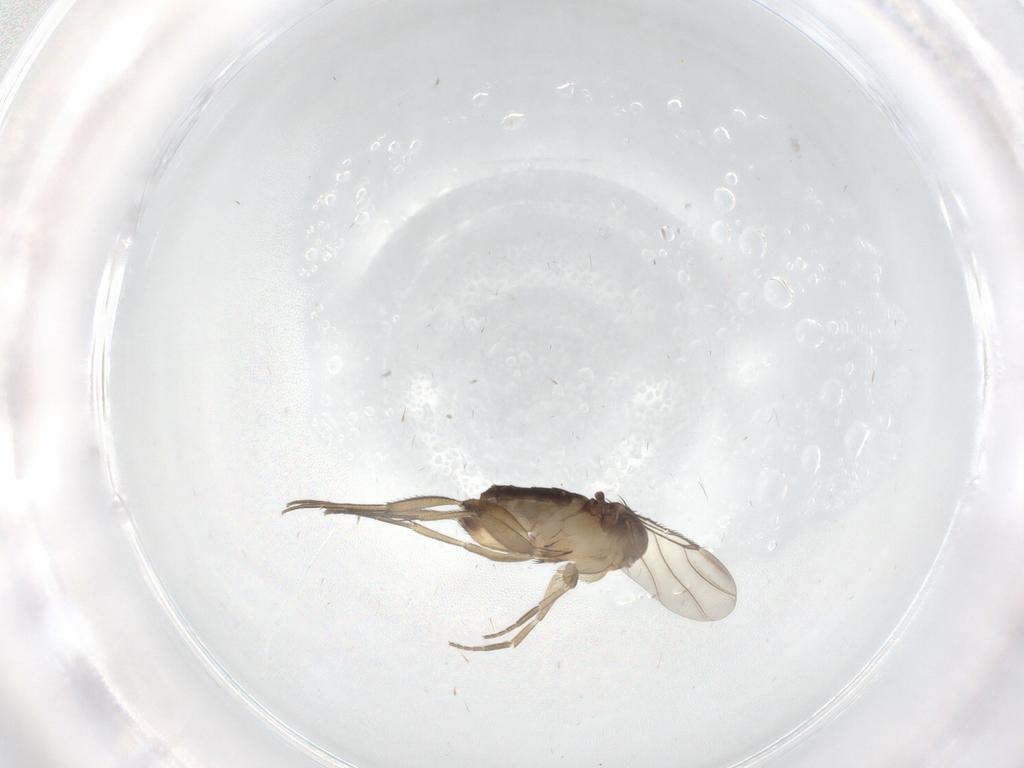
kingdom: Animalia
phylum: Arthropoda
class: Insecta
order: Diptera
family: Phoridae
